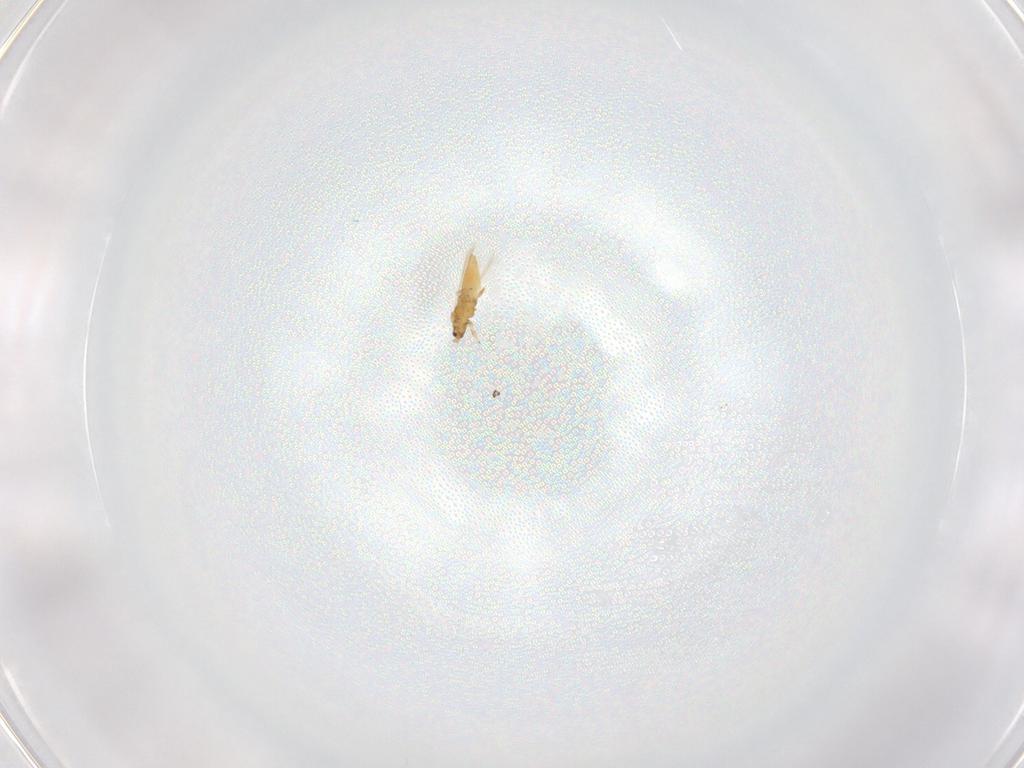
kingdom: Animalia
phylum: Arthropoda
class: Insecta
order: Thysanoptera
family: Thripidae
